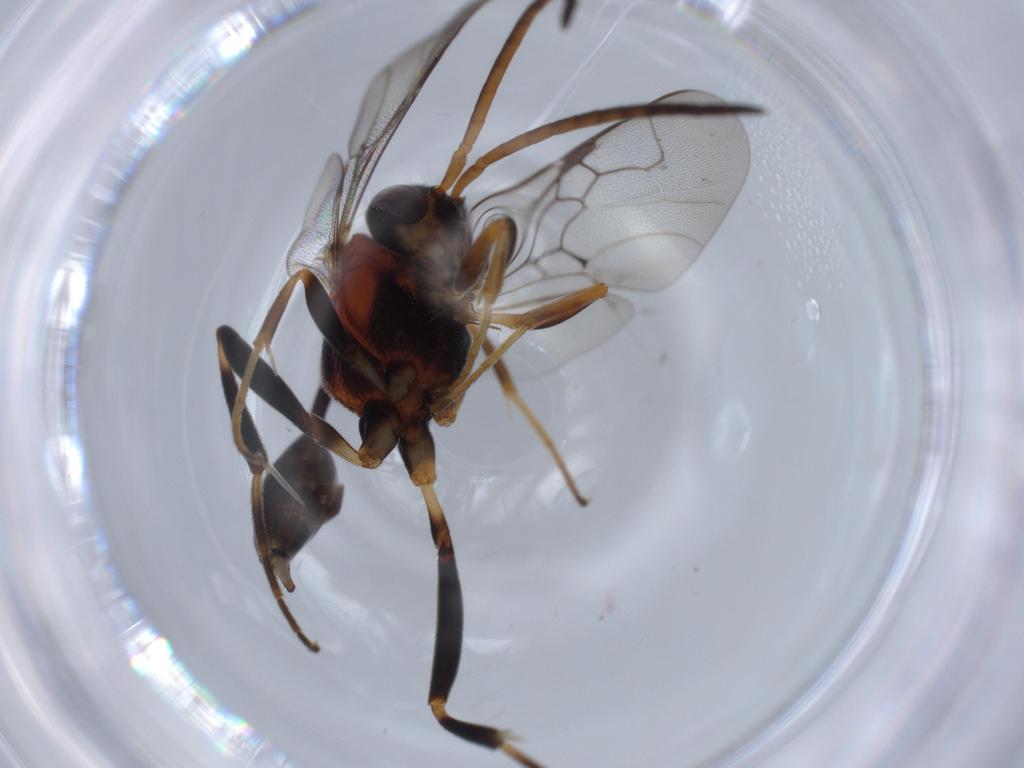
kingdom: Animalia
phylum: Arthropoda
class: Insecta
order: Hymenoptera
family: Evaniidae
